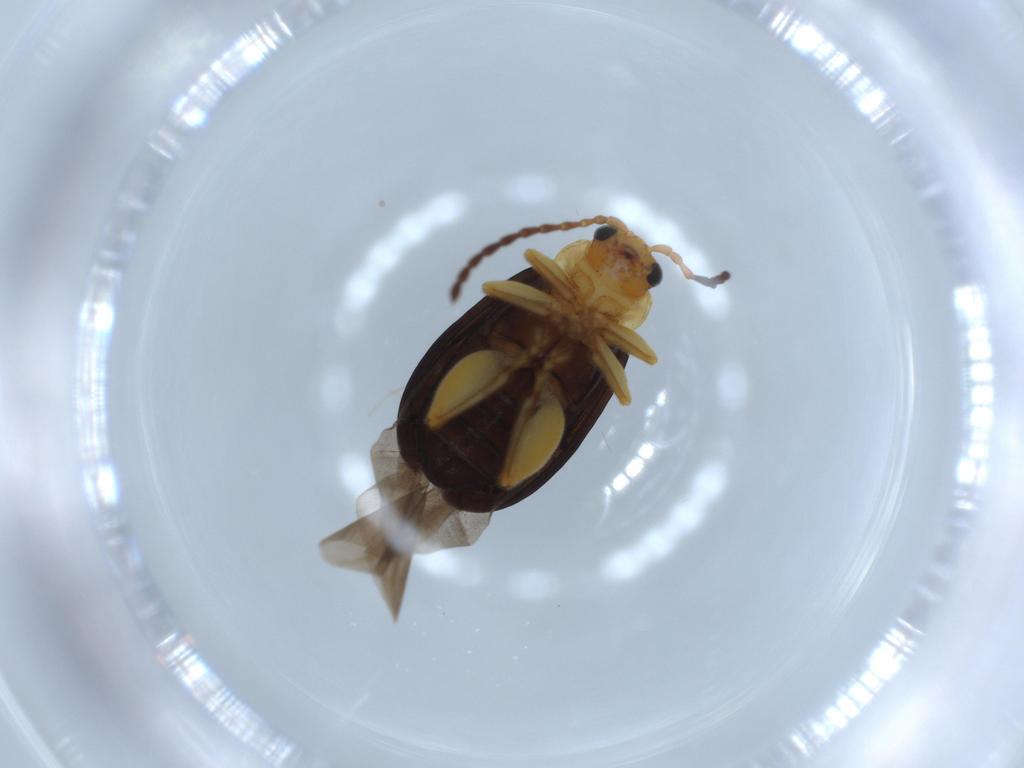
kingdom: Animalia
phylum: Arthropoda
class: Insecta
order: Coleoptera
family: Chrysomelidae
